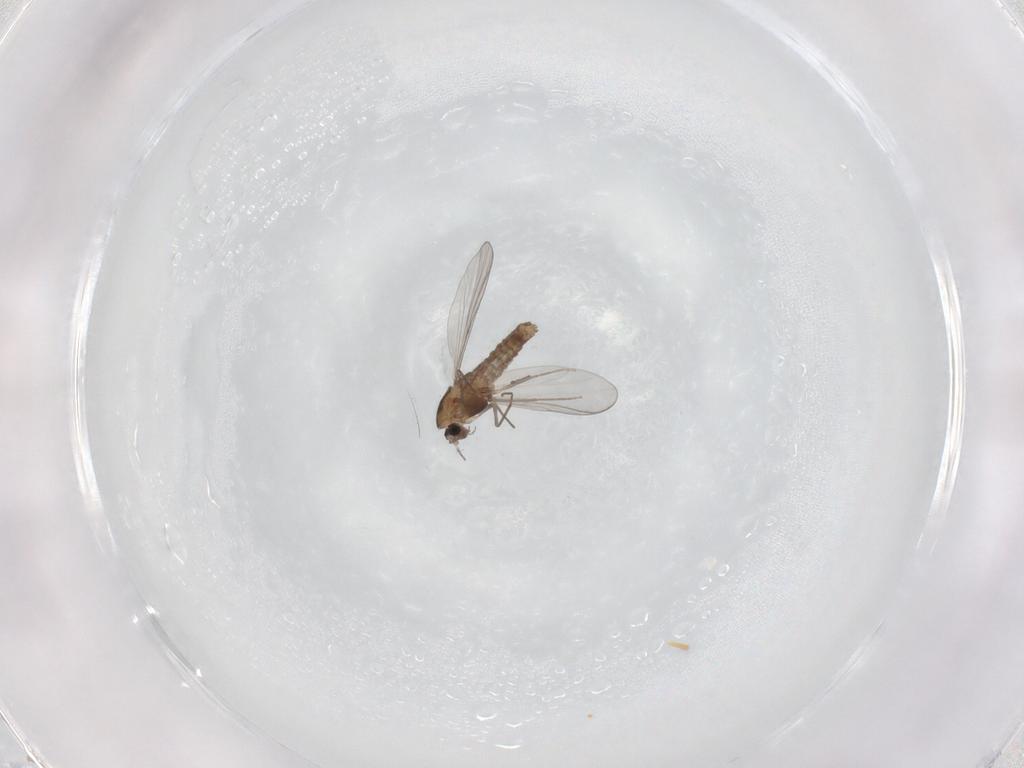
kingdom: Animalia
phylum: Arthropoda
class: Insecta
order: Diptera
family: Chironomidae
